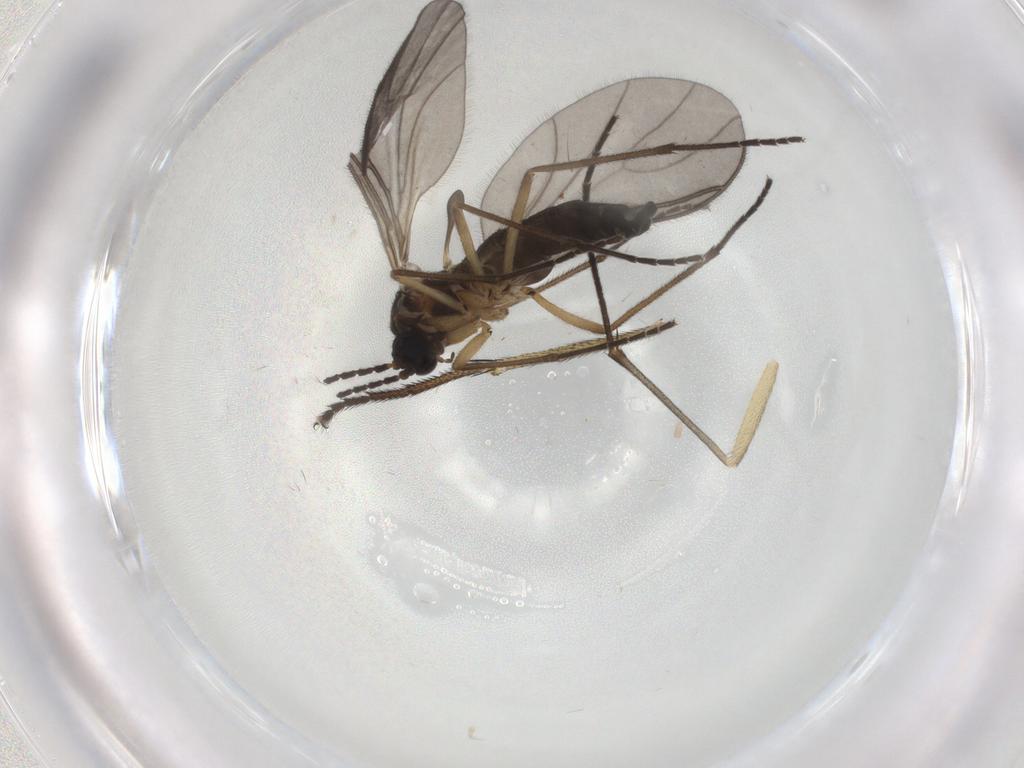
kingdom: Animalia
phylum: Arthropoda
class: Insecta
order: Diptera
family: Sciaridae
